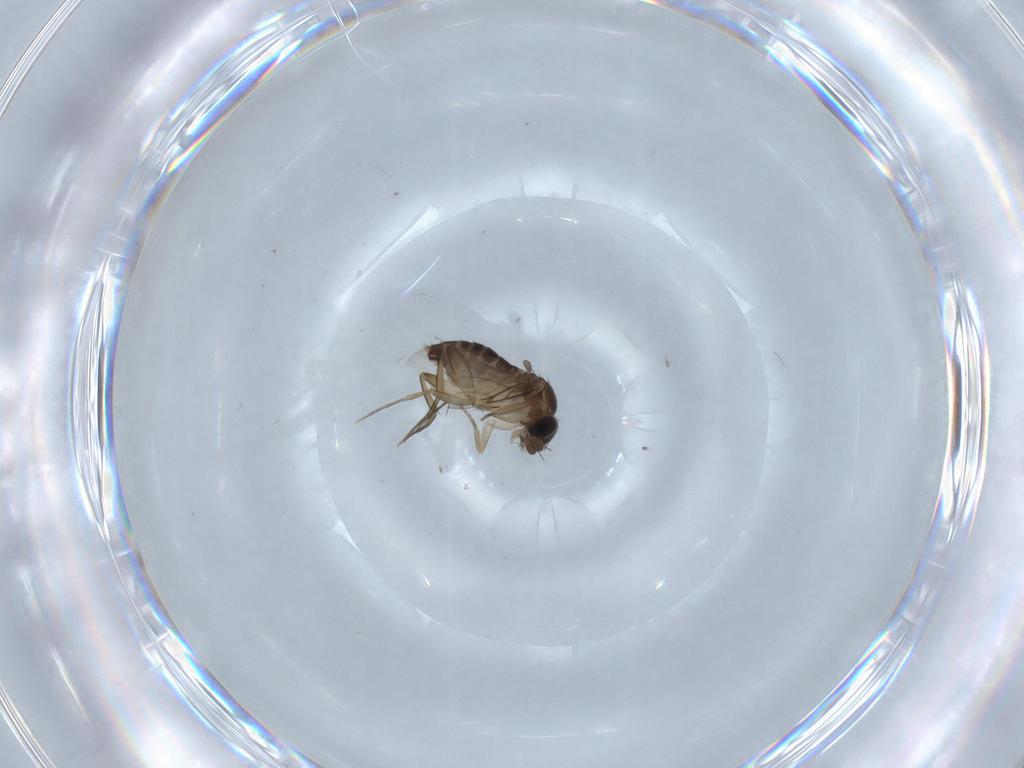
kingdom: Animalia
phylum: Arthropoda
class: Insecta
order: Diptera
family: Phoridae
